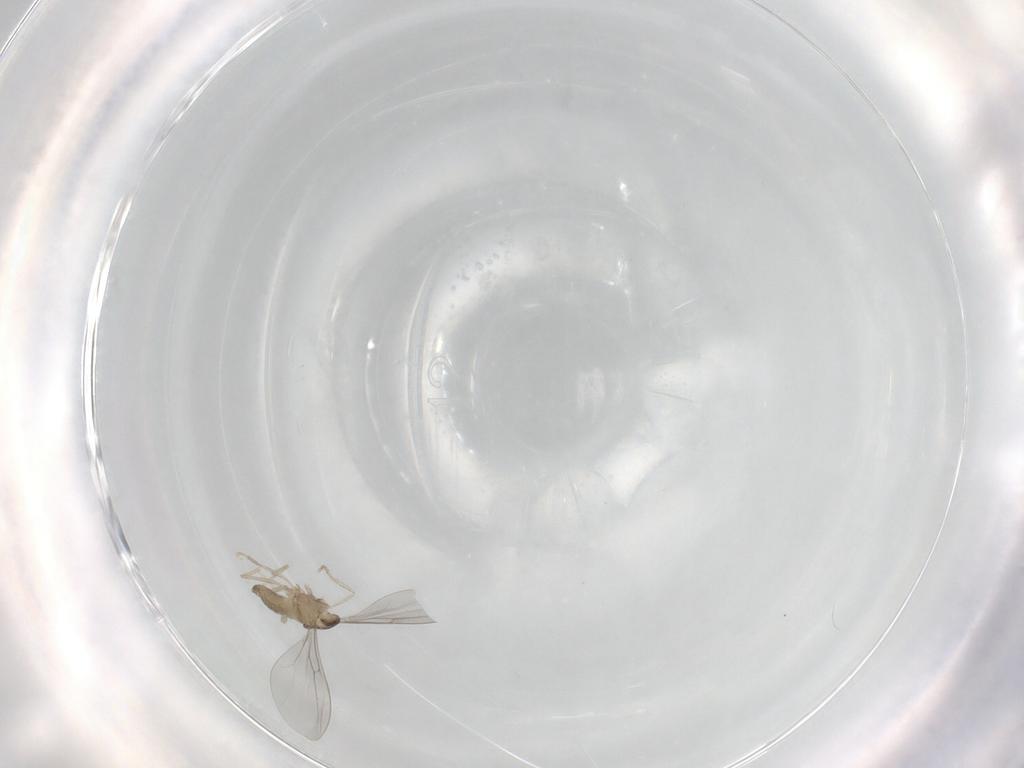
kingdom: Animalia
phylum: Arthropoda
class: Insecta
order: Diptera
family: Cecidomyiidae
